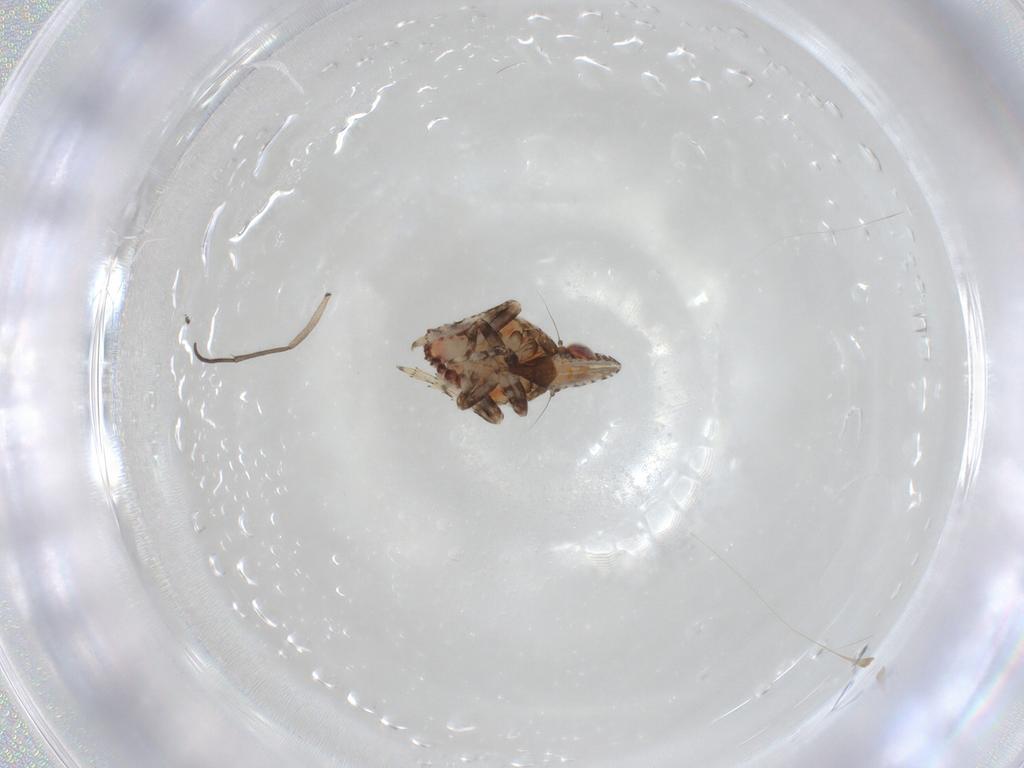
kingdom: Animalia
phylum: Arthropoda
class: Insecta
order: Hemiptera
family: Tropiduchidae
